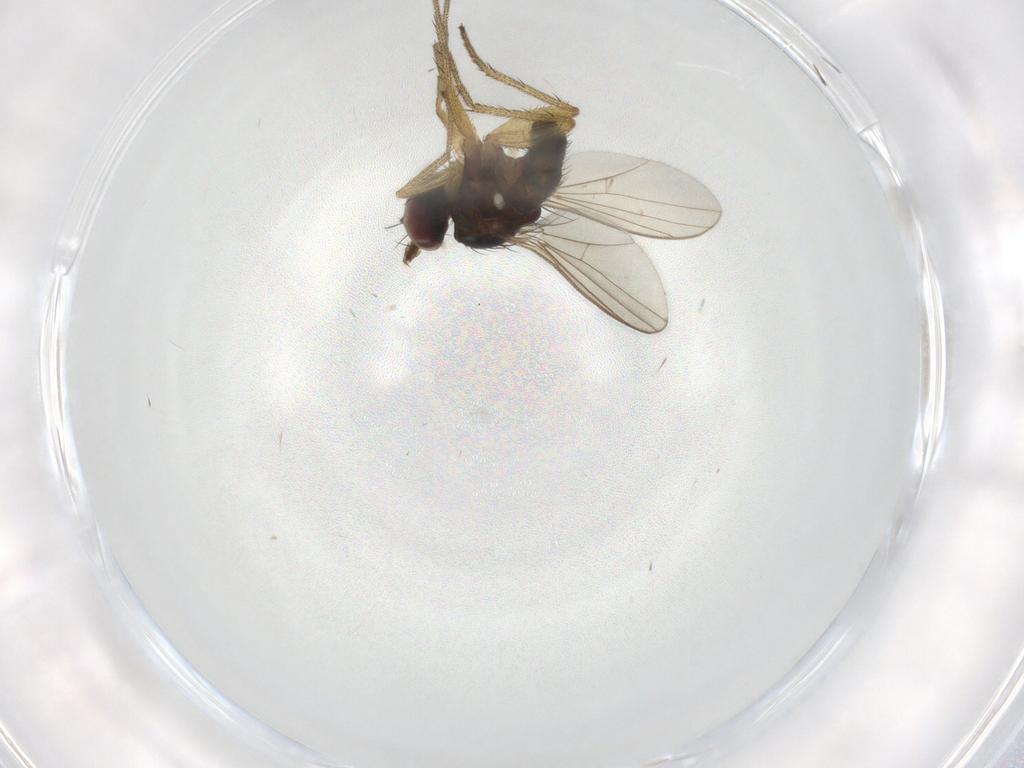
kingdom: Animalia
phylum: Arthropoda
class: Insecta
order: Diptera
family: Chironomidae
